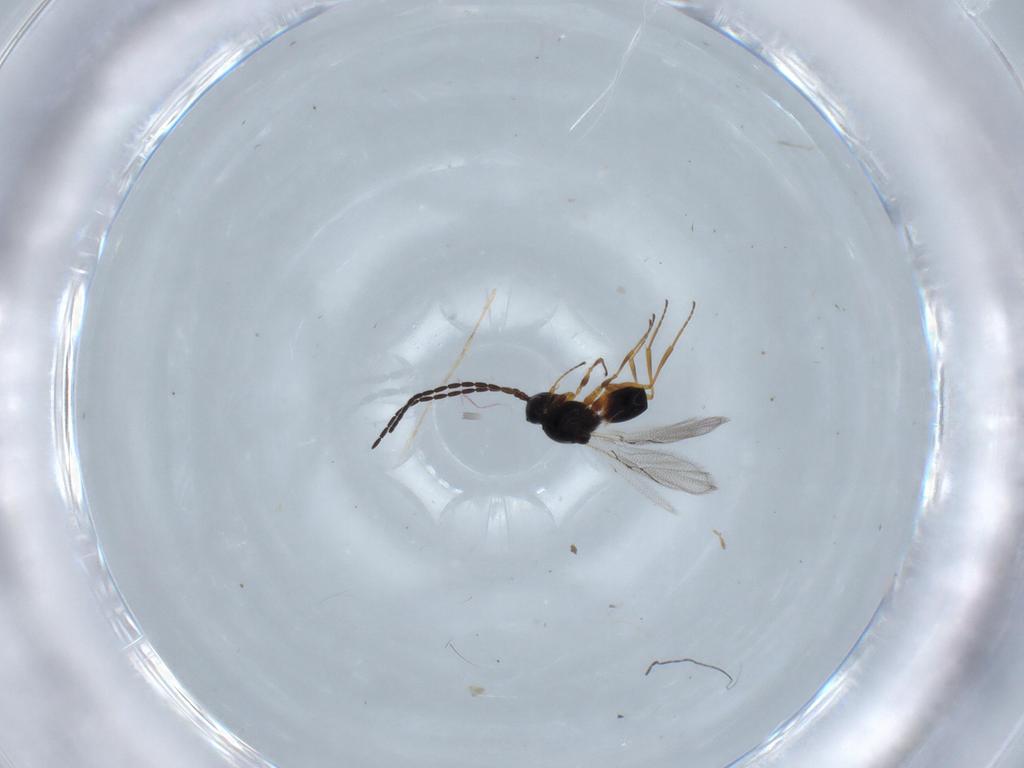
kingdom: Animalia
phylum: Arthropoda
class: Insecta
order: Hymenoptera
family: Figitidae
